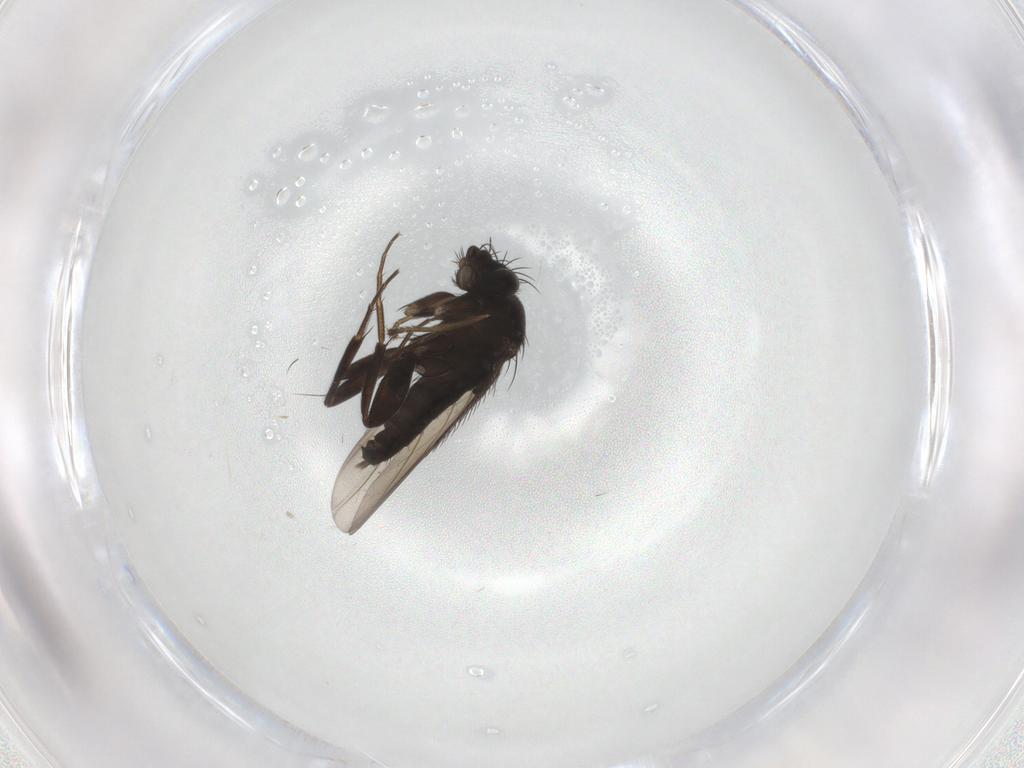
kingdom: Animalia
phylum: Arthropoda
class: Insecta
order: Diptera
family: Phoridae
